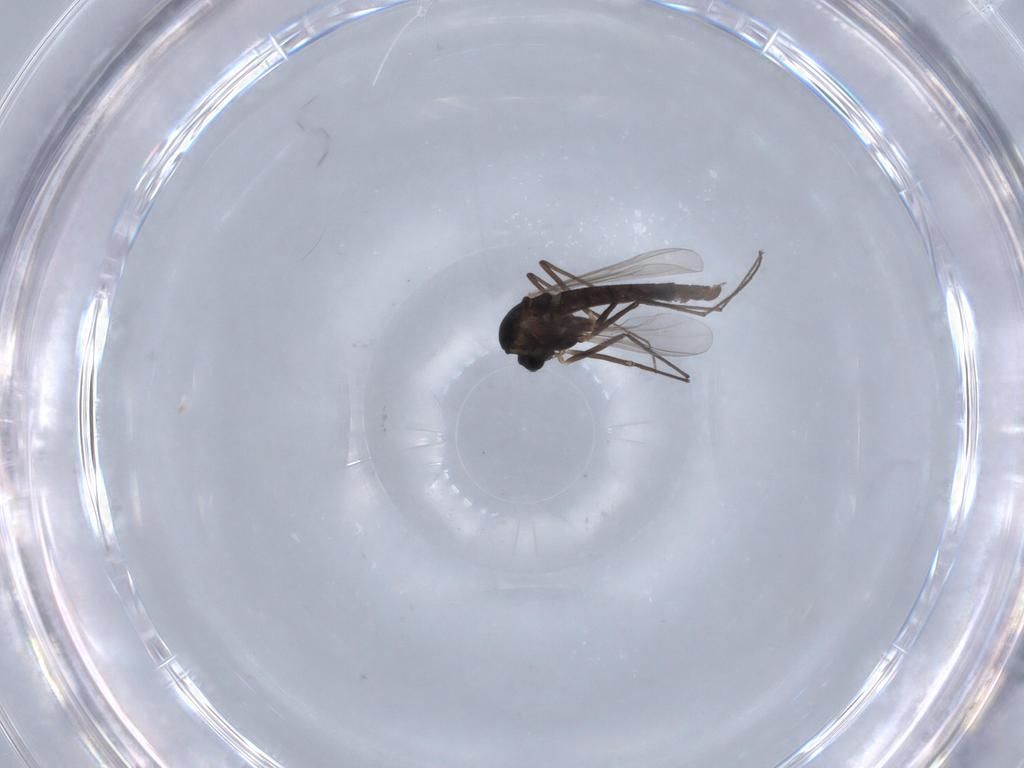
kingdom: Animalia
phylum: Arthropoda
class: Insecta
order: Diptera
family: Chironomidae
